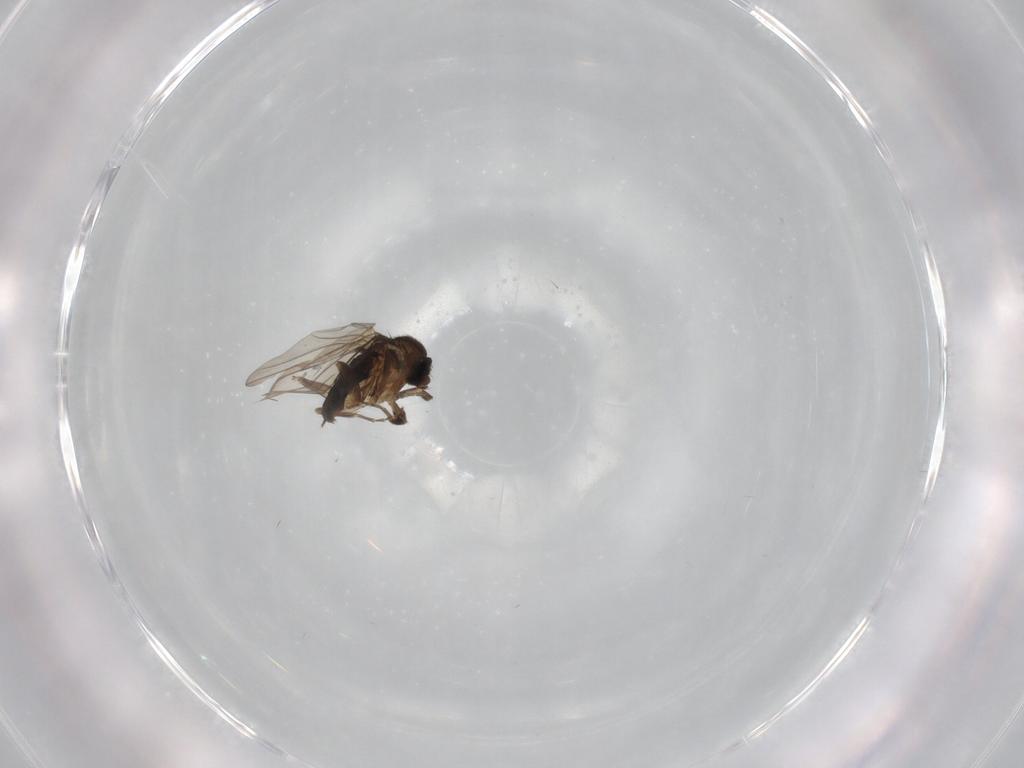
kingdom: Animalia
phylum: Arthropoda
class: Insecta
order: Diptera
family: Phoridae
